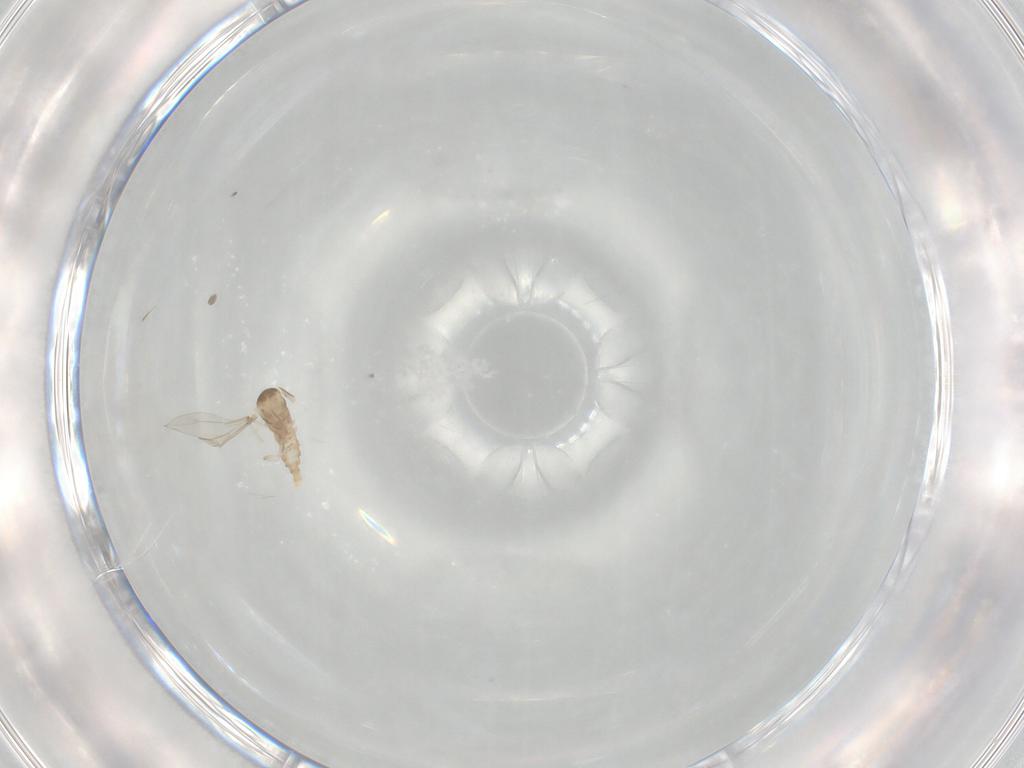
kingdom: Animalia
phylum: Arthropoda
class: Insecta
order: Diptera
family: Cecidomyiidae
